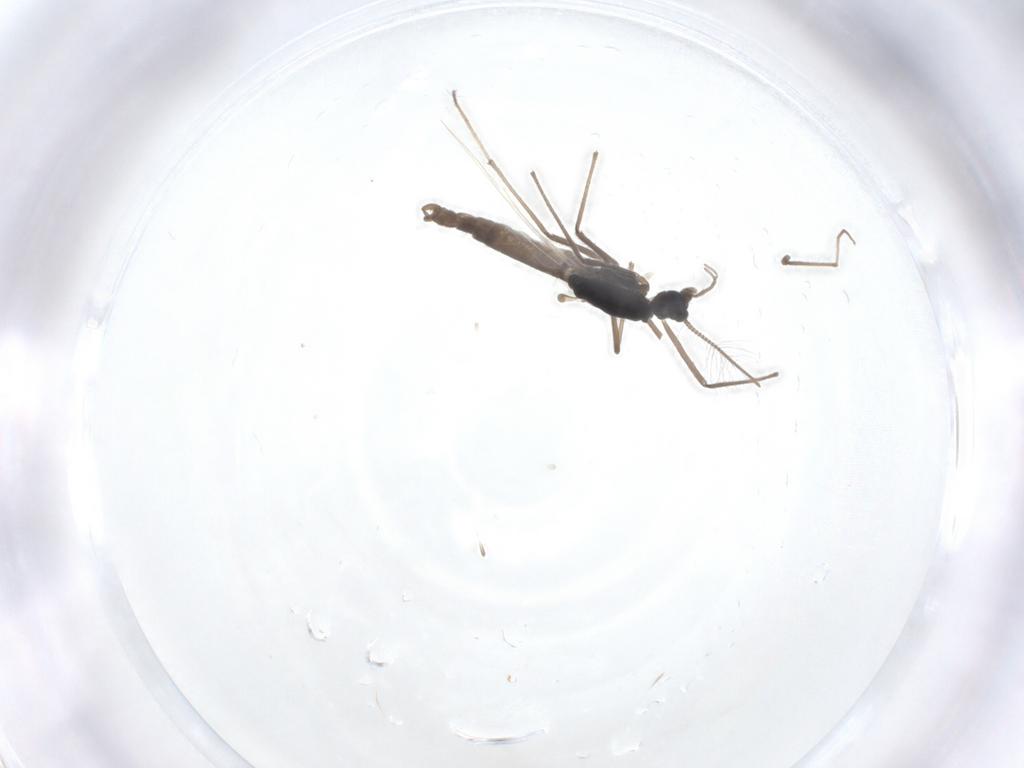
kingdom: Animalia
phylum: Arthropoda
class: Insecta
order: Diptera
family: Chironomidae
